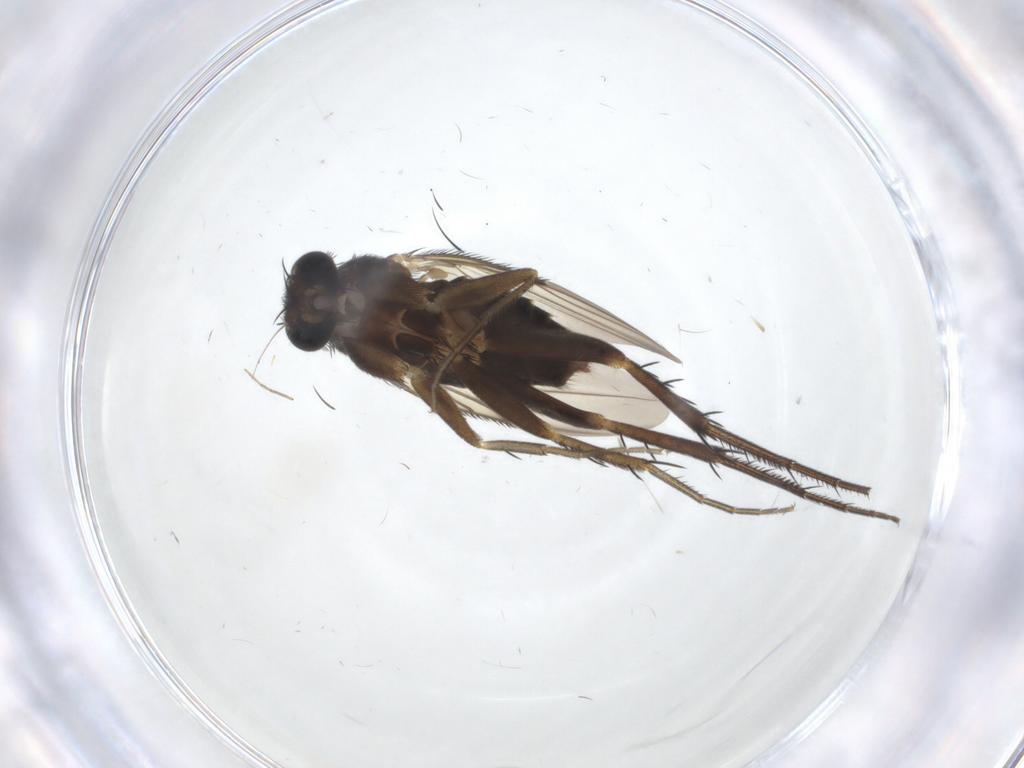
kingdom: Animalia
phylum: Arthropoda
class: Insecta
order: Diptera
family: Phoridae
